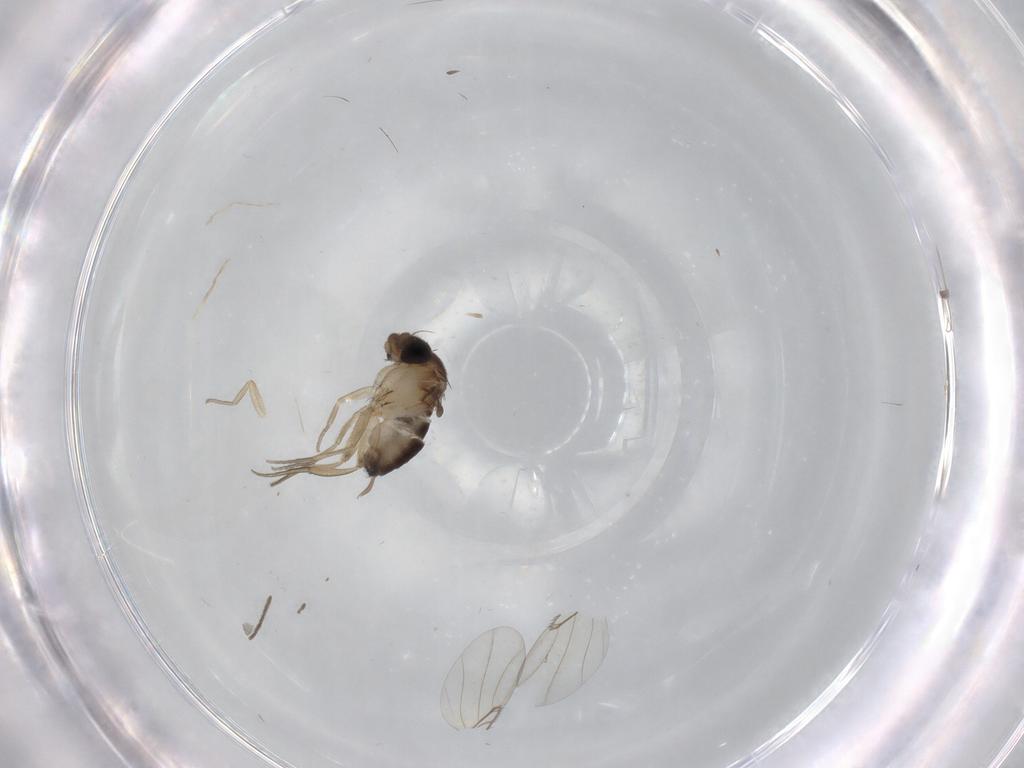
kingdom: Animalia
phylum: Arthropoda
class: Insecta
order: Diptera
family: Chironomidae
